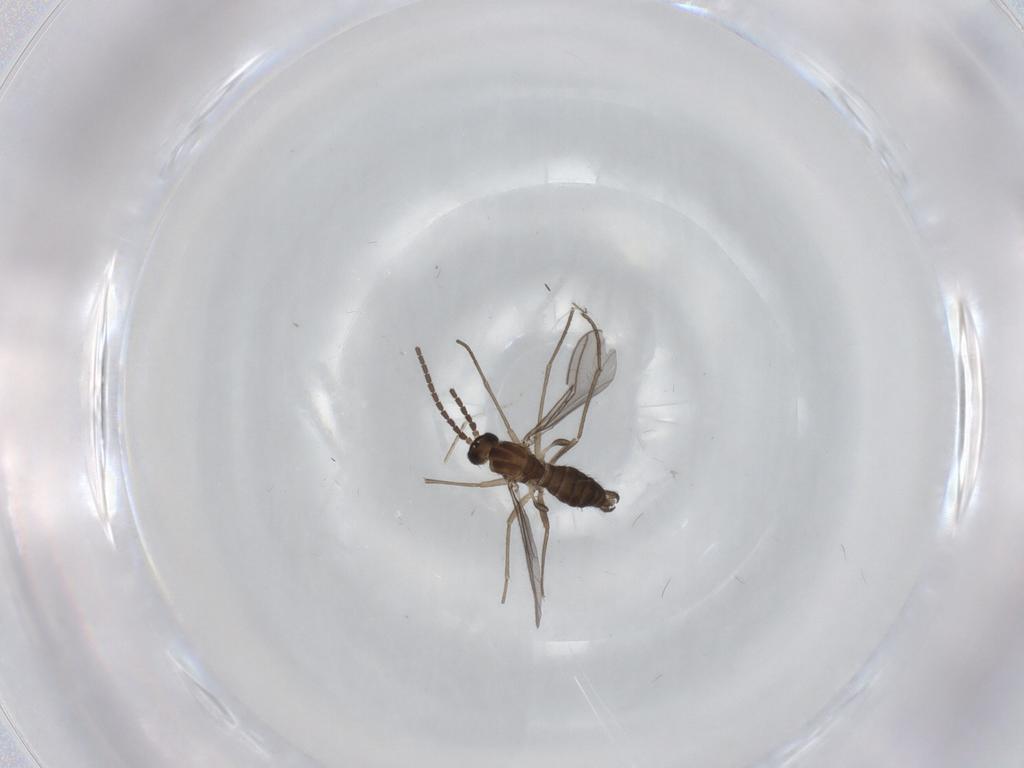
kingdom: Animalia
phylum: Arthropoda
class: Insecta
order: Diptera
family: Sciaridae
